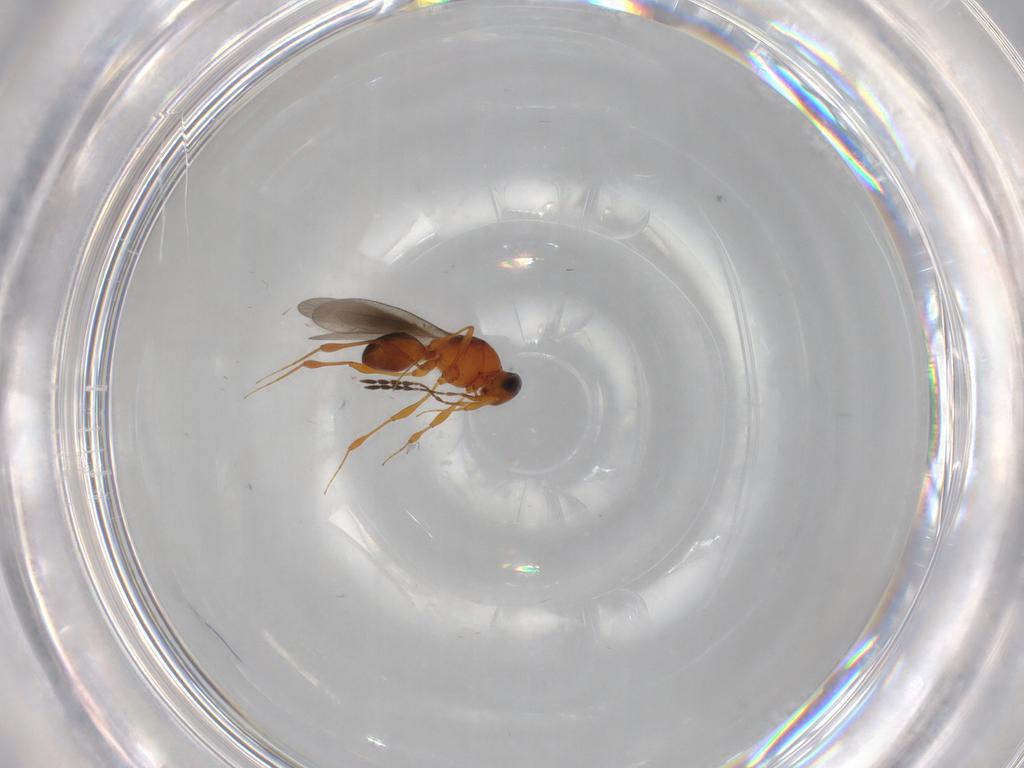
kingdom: Animalia
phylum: Arthropoda
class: Insecta
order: Hymenoptera
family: Platygastridae
